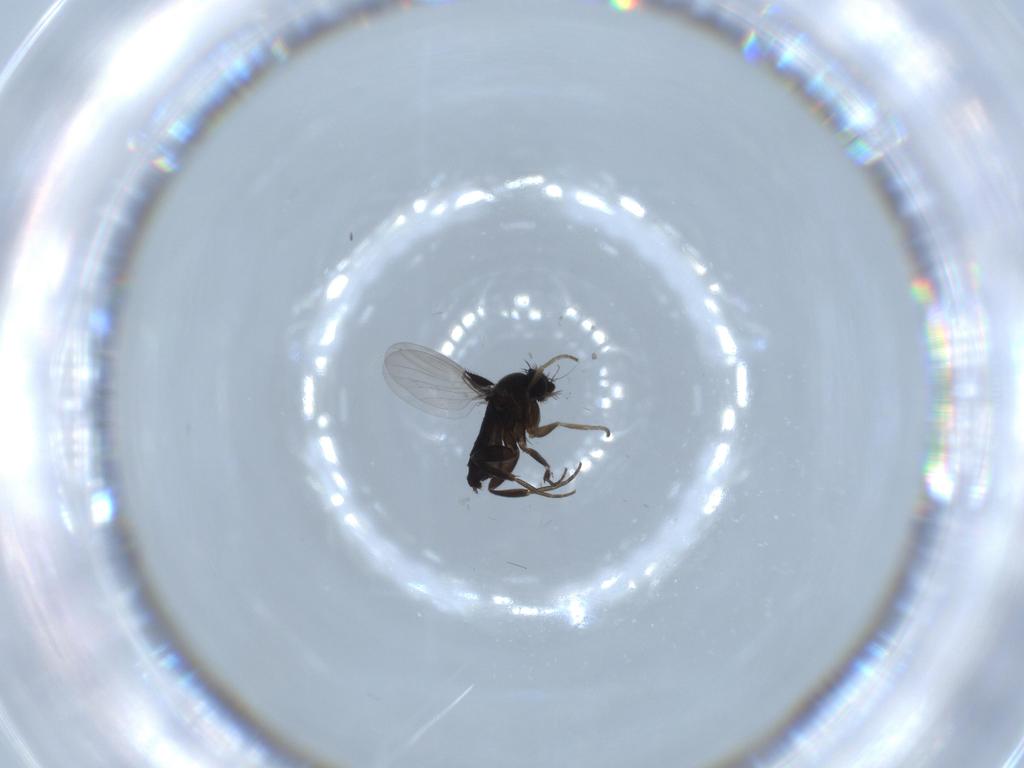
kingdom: Animalia
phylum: Arthropoda
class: Insecta
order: Diptera
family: Phoridae
